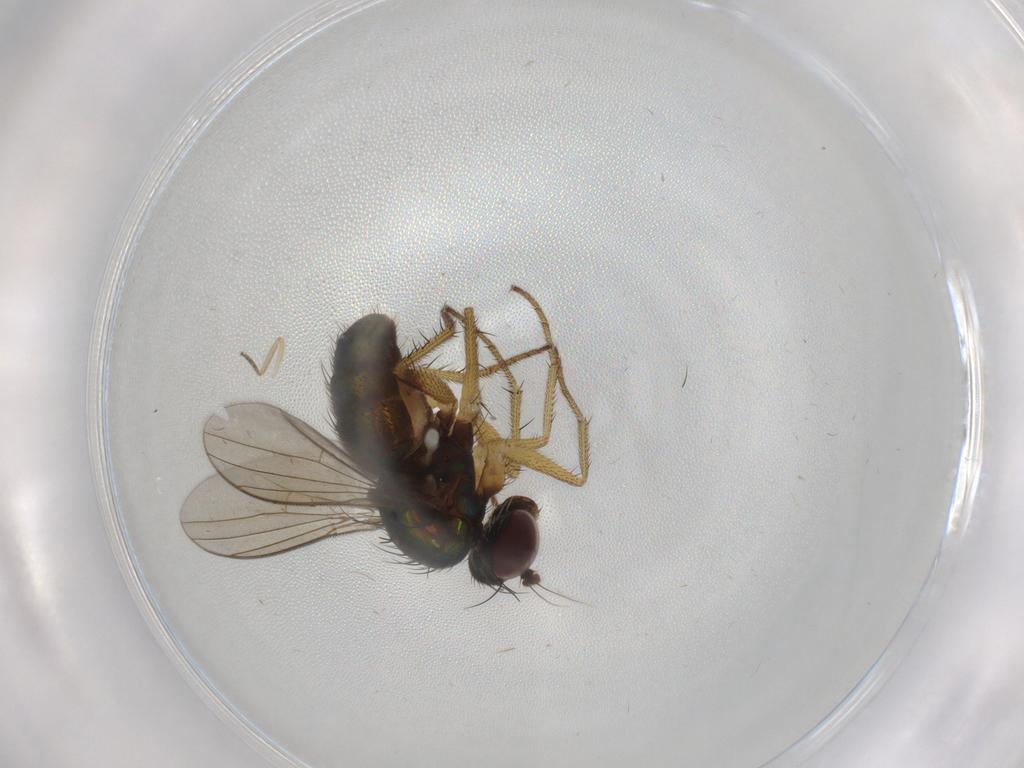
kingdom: Animalia
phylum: Arthropoda
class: Insecta
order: Diptera
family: Dolichopodidae
